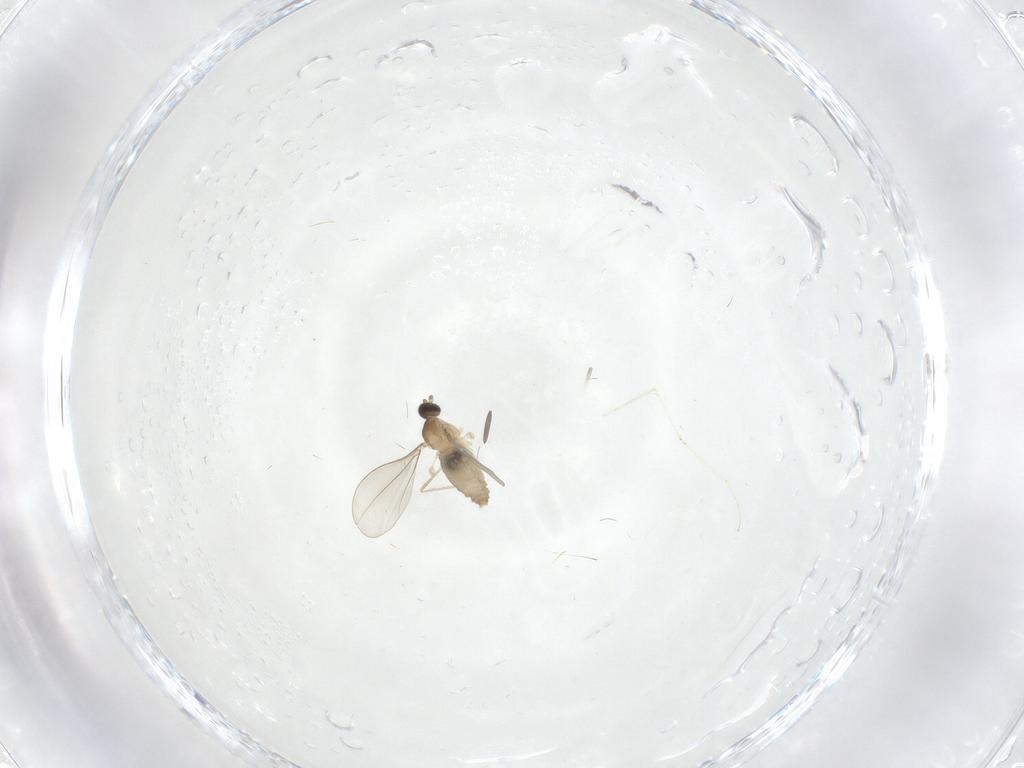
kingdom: Animalia
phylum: Arthropoda
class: Insecta
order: Diptera
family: Cecidomyiidae
